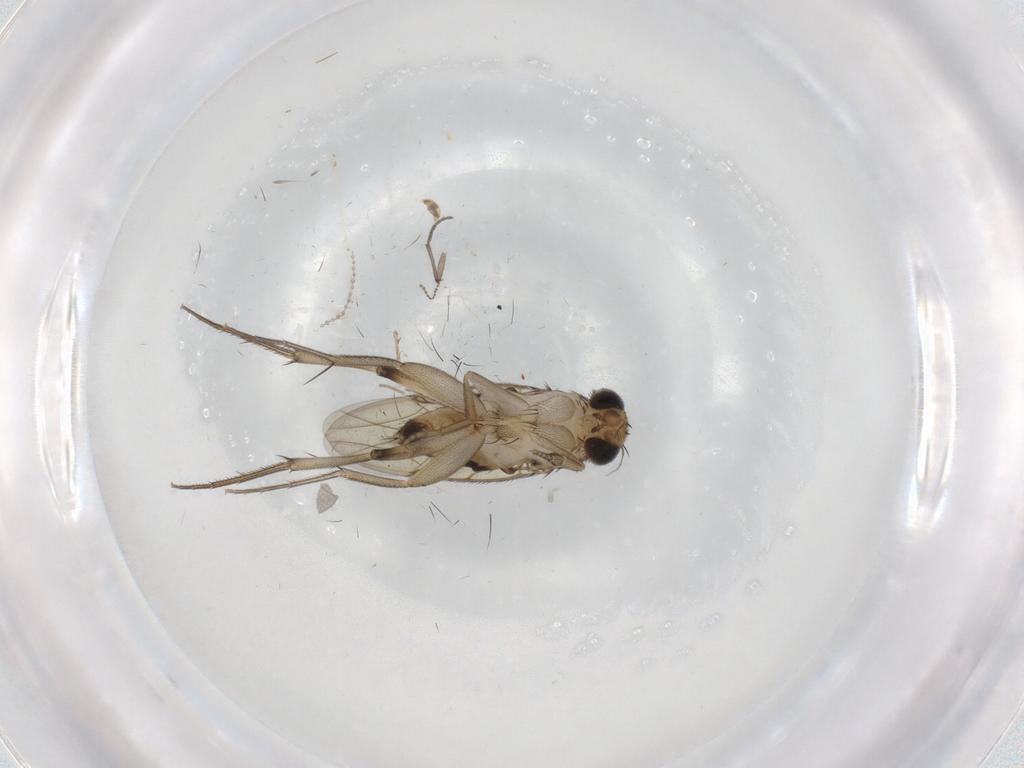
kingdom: Animalia
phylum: Arthropoda
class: Insecta
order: Diptera
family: Phoridae
